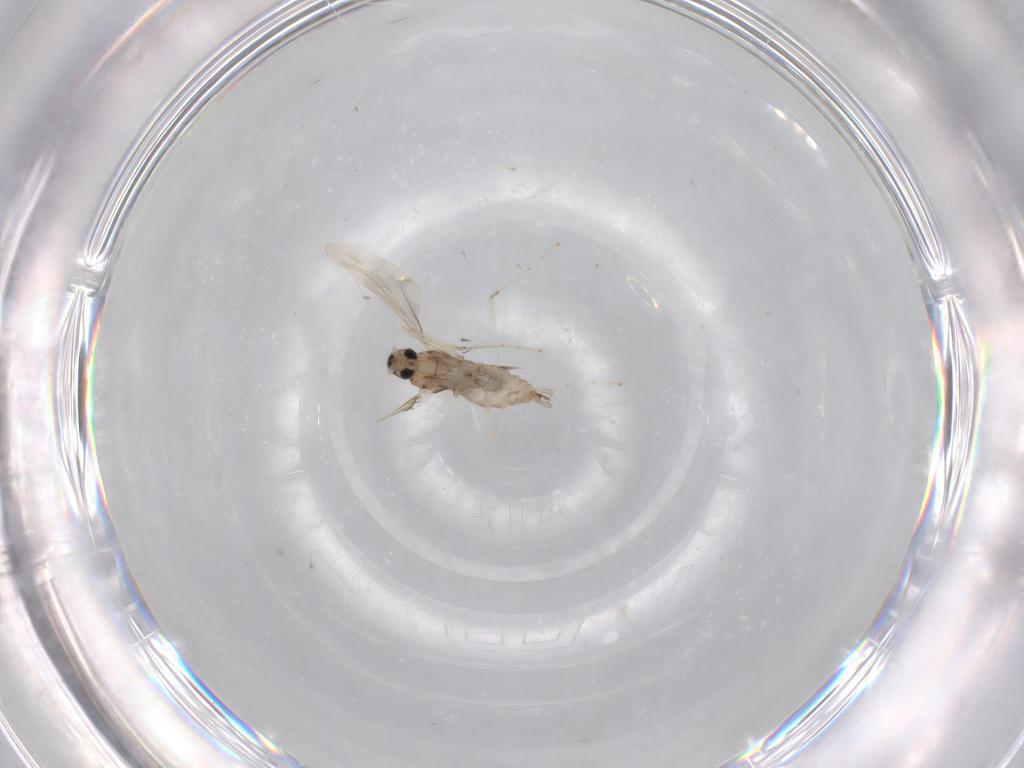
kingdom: Animalia
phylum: Arthropoda
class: Insecta
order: Diptera
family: Cecidomyiidae
